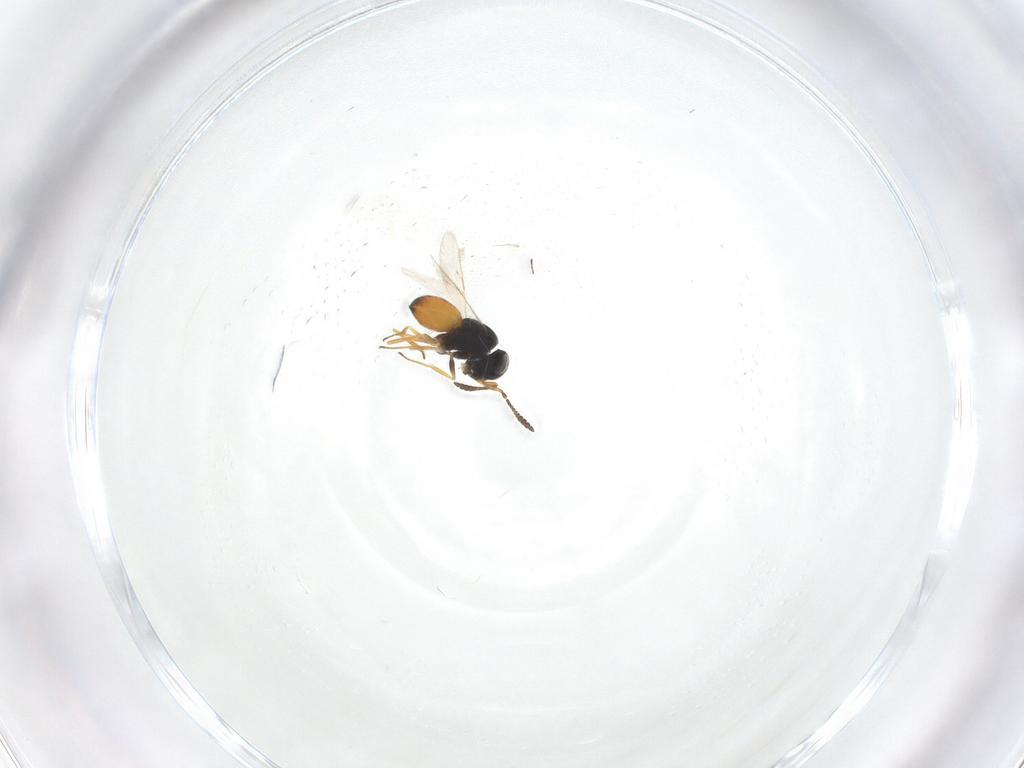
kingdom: Animalia
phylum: Arthropoda
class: Insecta
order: Hymenoptera
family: Scelionidae
